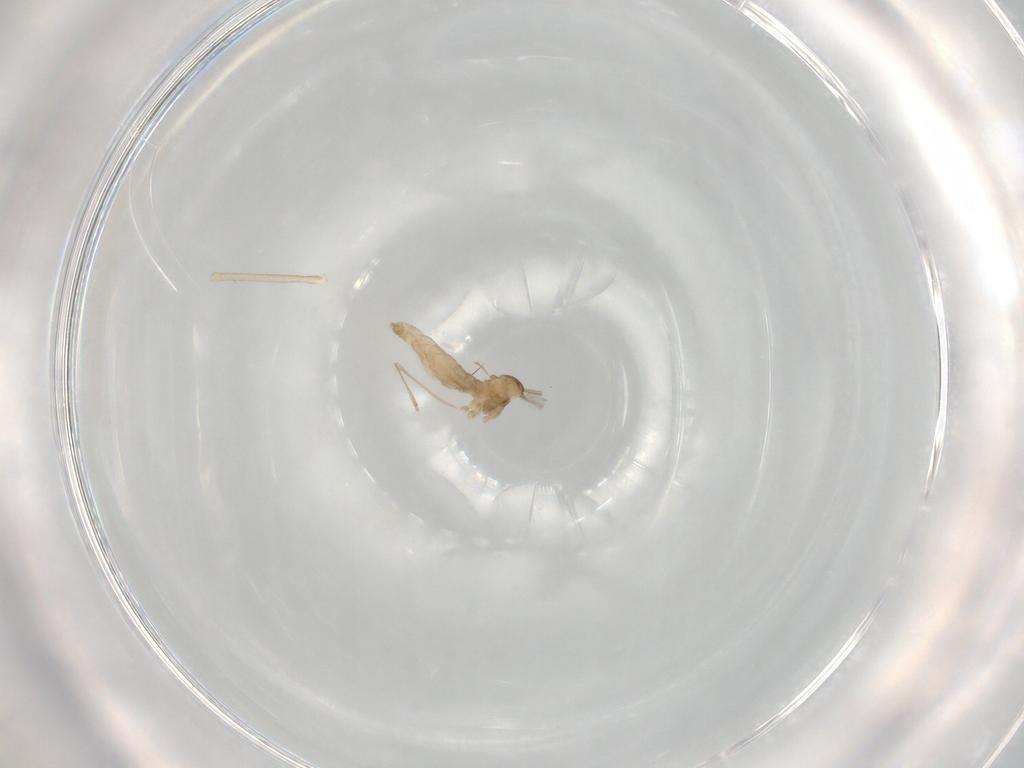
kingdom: Animalia
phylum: Arthropoda
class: Insecta
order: Diptera
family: Cecidomyiidae
